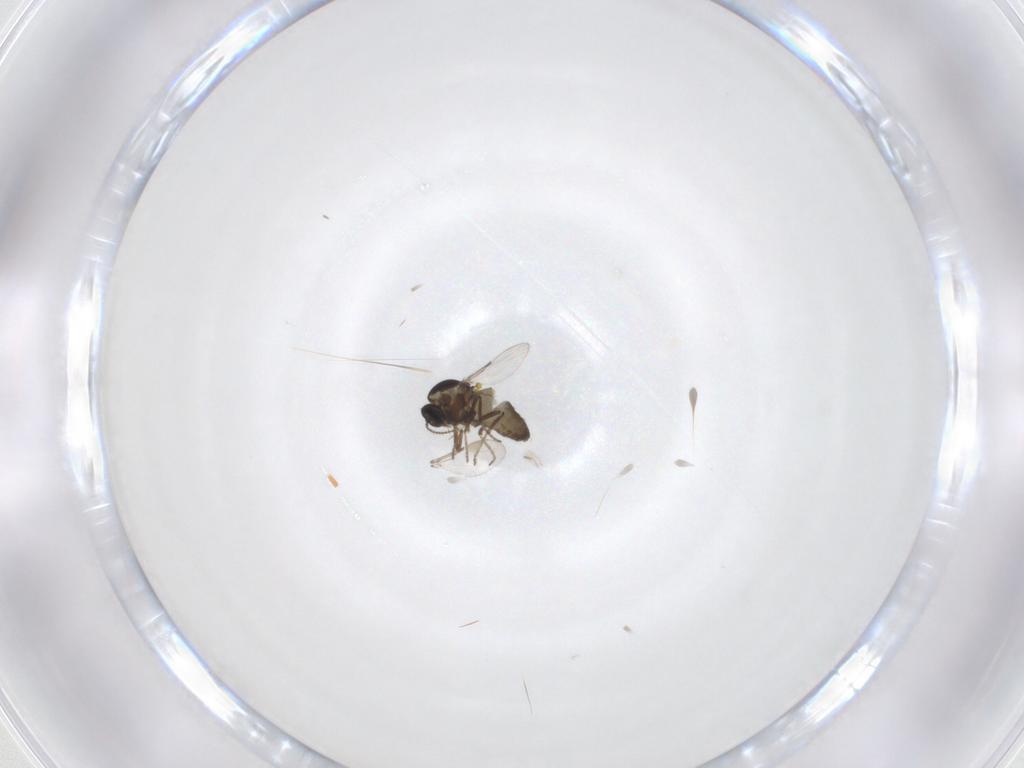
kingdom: Animalia
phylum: Arthropoda
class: Insecta
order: Diptera
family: Ceratopogonidae
